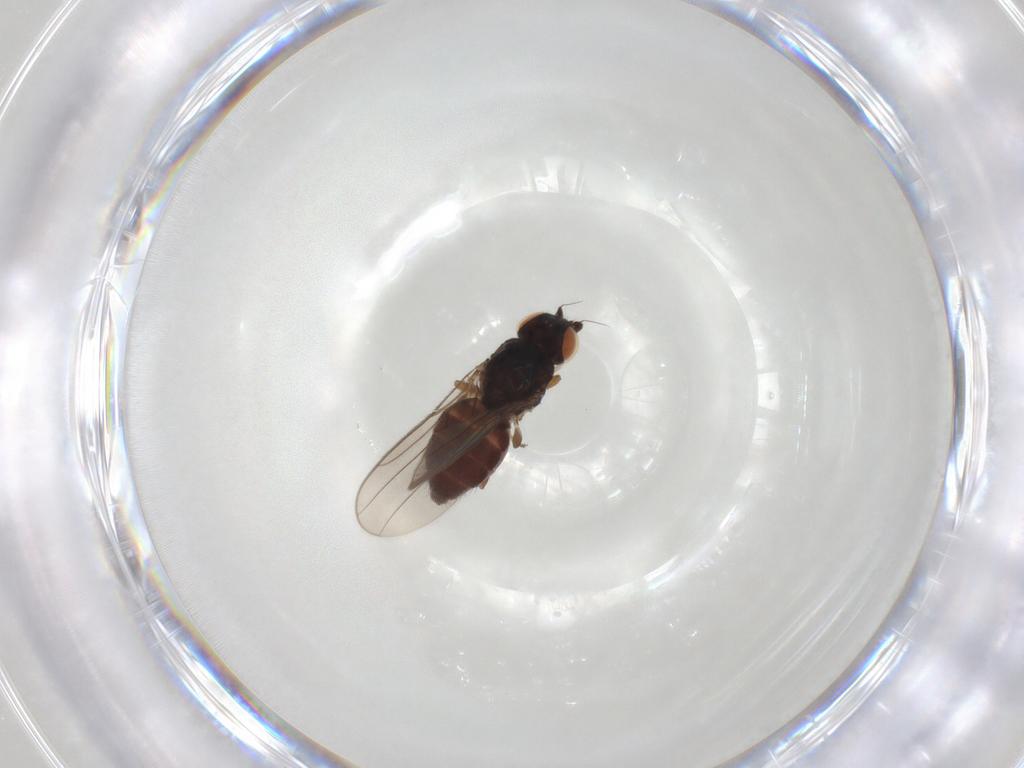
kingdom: Animalia
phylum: Arthropoda
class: Insecta
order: Diptera
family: Chloropidae
